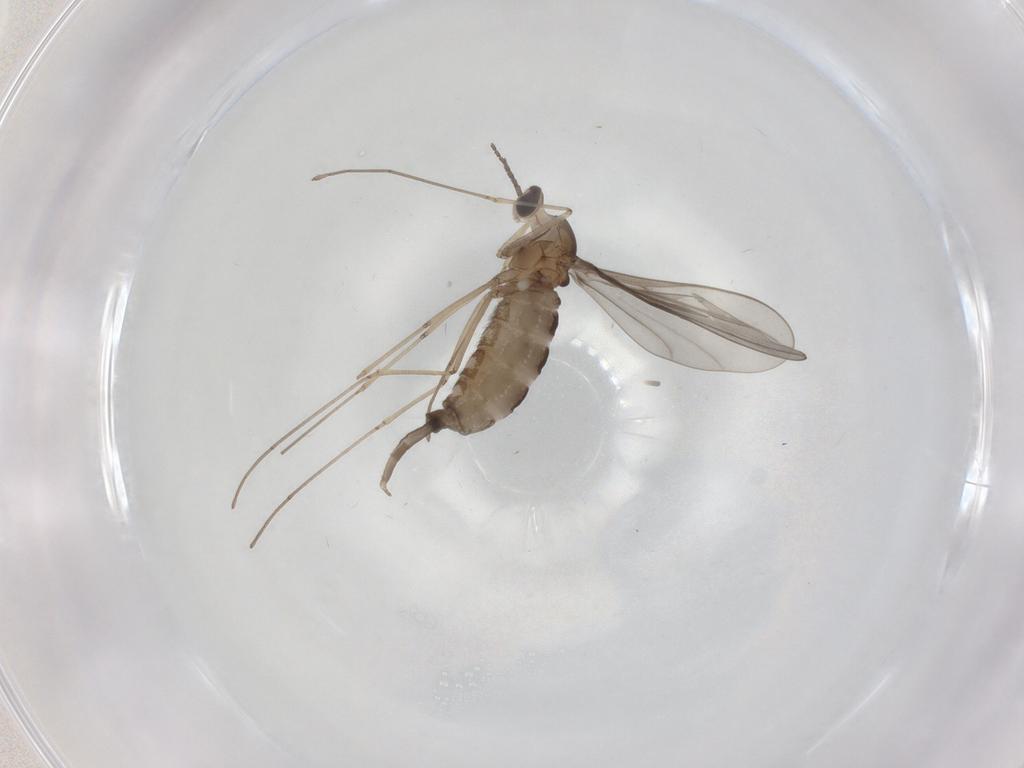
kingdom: Animalia
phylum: Arthropoda
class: Insecta
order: Diptera
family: Cecidomyiidae
